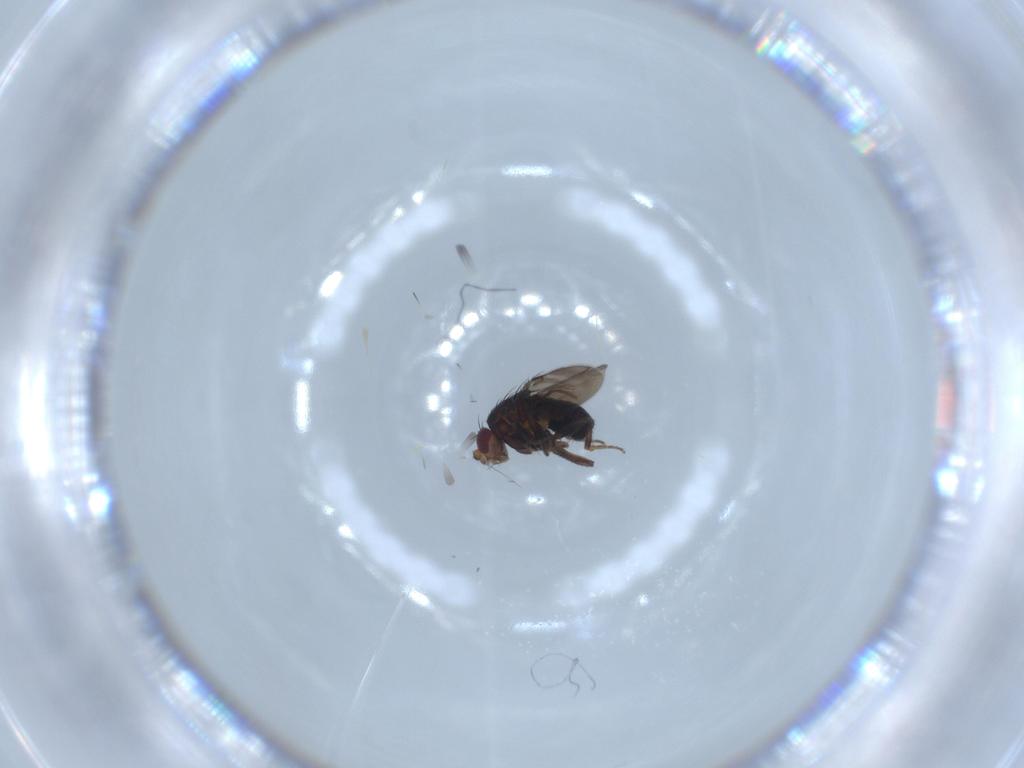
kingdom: Animalia
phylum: Arthropoda
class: Insecta
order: Diptera
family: Sphaeroceridae
